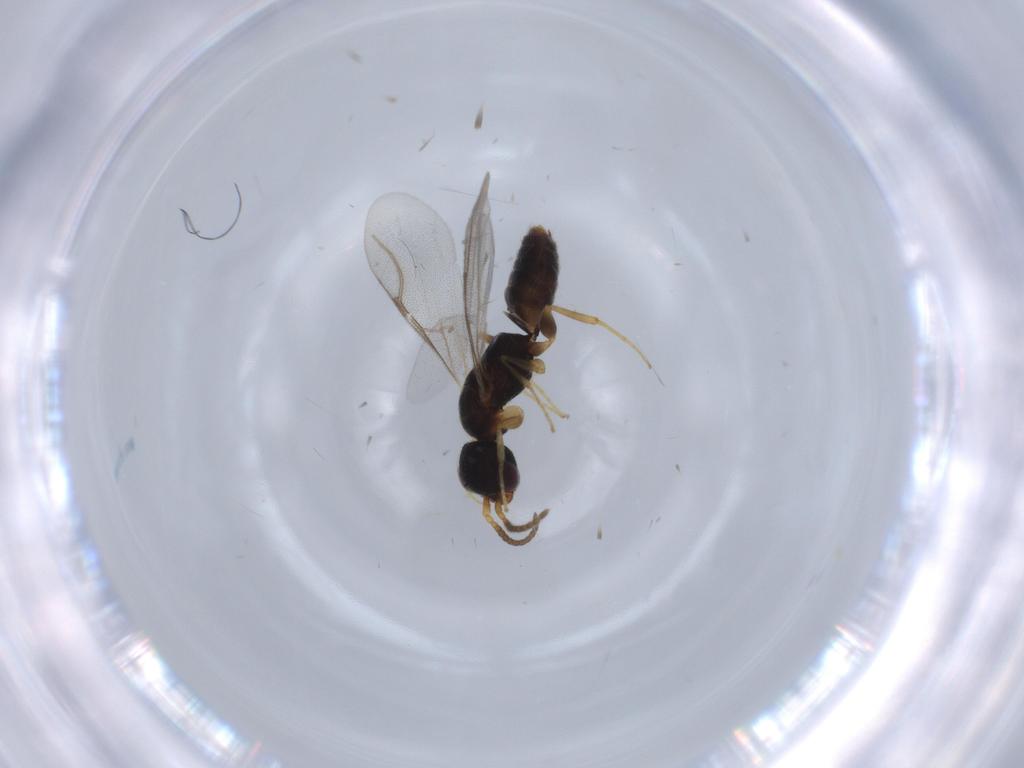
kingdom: Animalia
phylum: Arthropoda
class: Insecta
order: Hymenoptera
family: Bethylidae
